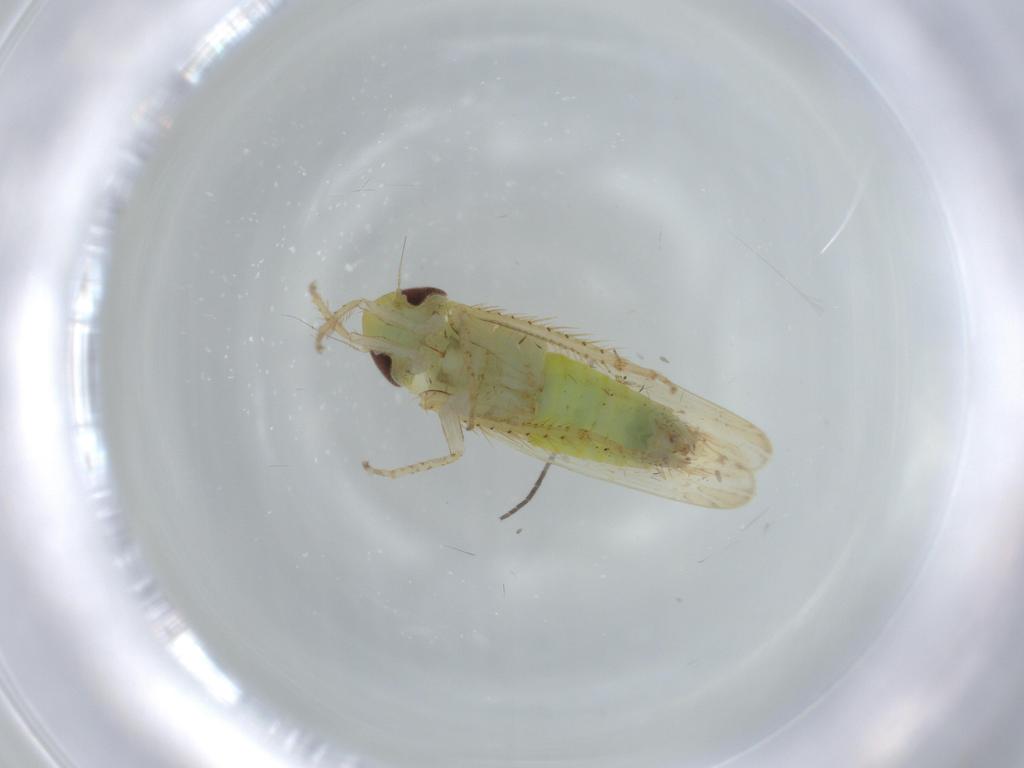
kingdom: Animalia
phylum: Arthropoda
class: Insecta
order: Hemiptera
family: Cicadellidae
